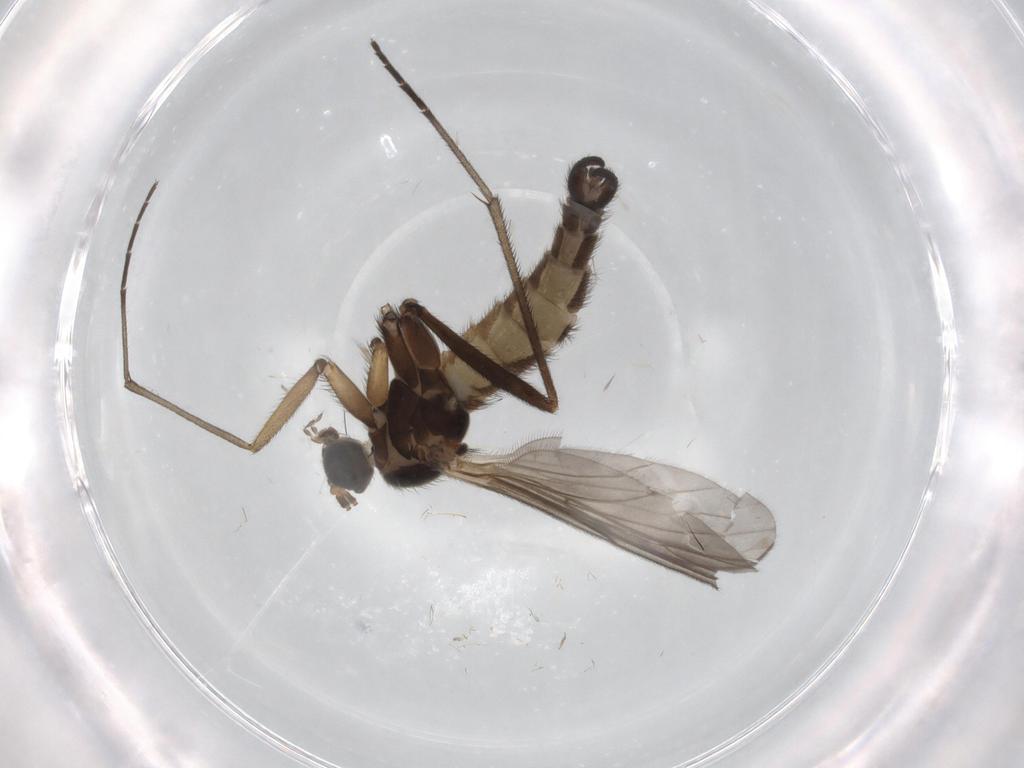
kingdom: Animalia
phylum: Arthropoda
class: Insecta
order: Diptera
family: Sciaridae
